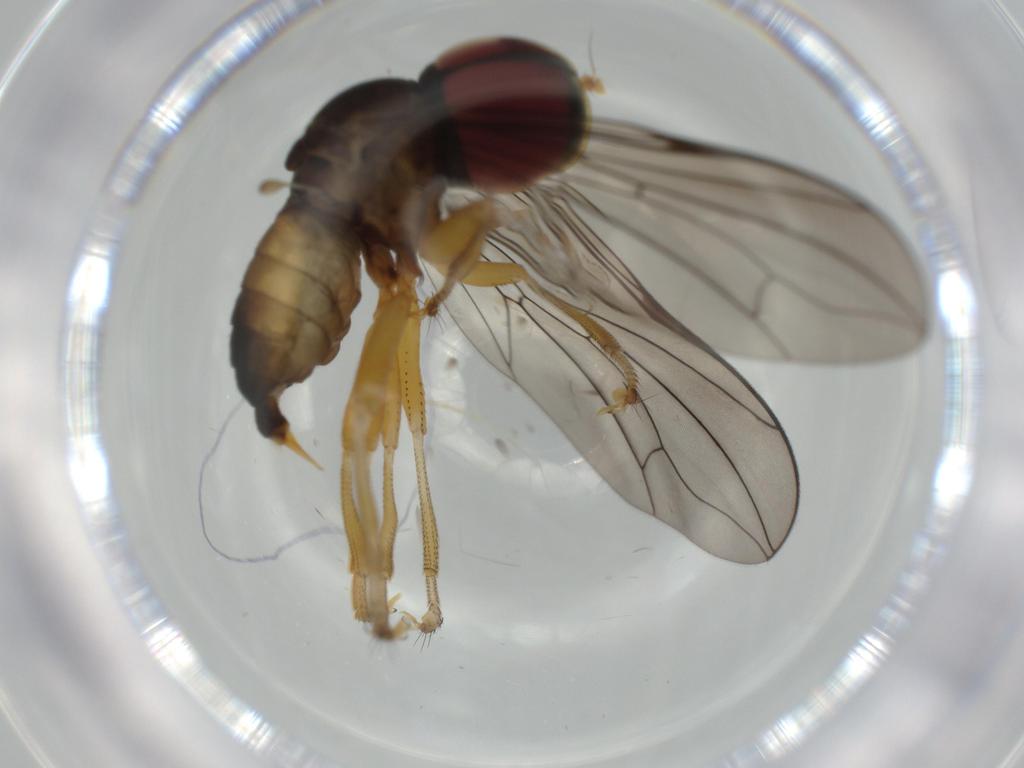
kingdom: Animalia
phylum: Arthropoda
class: Insecta
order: Diptera
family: Pipunculidae
